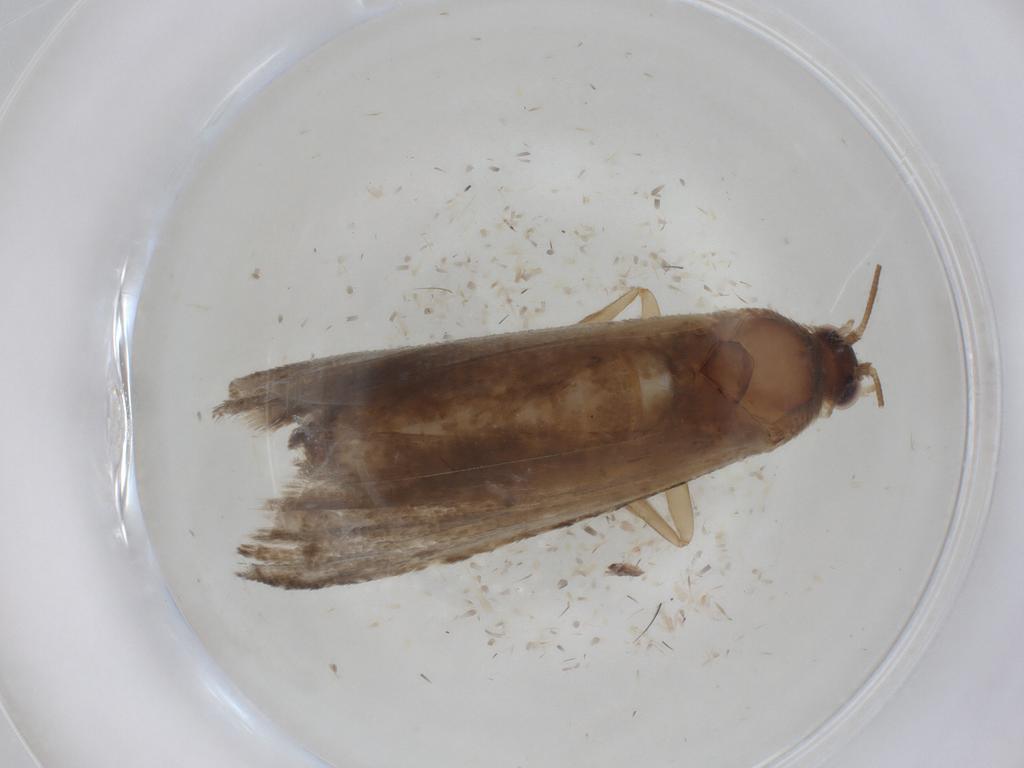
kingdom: Animalia
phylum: Arthropoda
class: Insecta
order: Lepidoptera
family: Tortricidae
